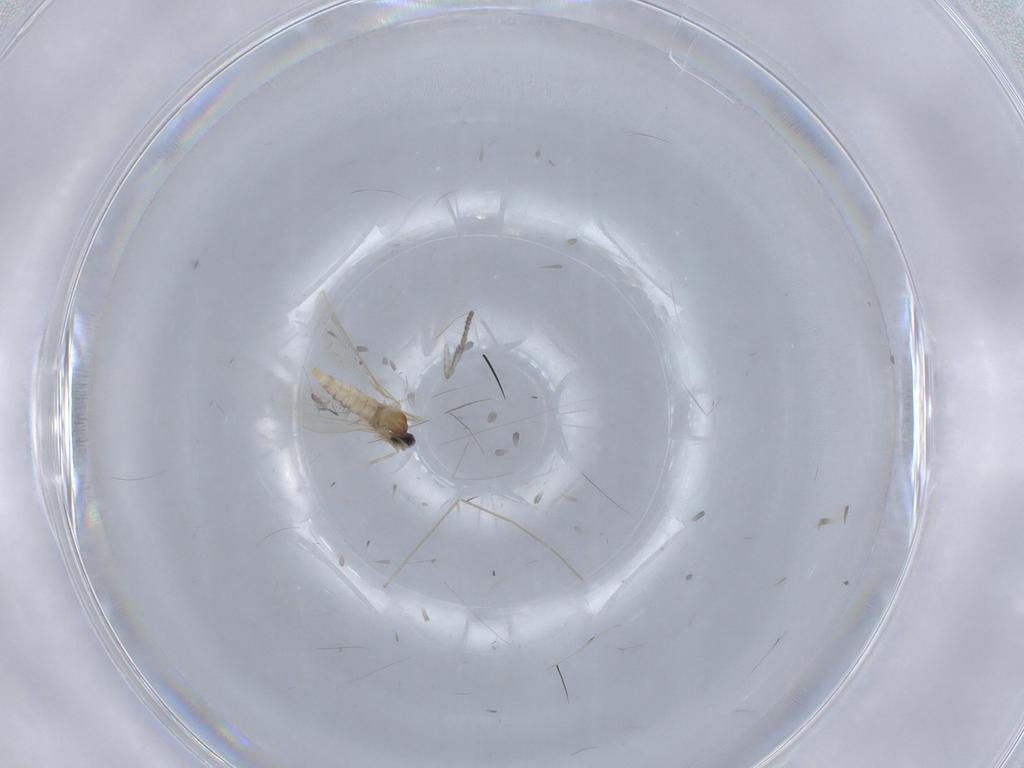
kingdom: Animalia
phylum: Arthropoda
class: Insecta
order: Diptera
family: Cecidomyiidae
